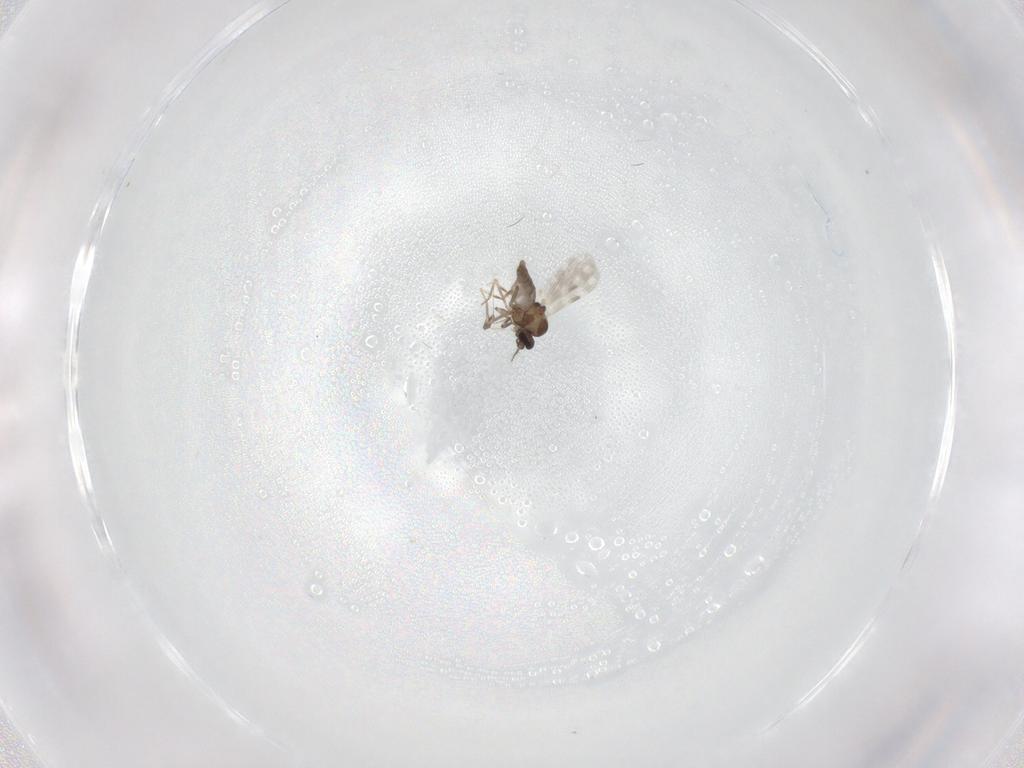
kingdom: Animalia
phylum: Arthropoda
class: Insecta
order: Diptera
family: Ceratopogonidae
